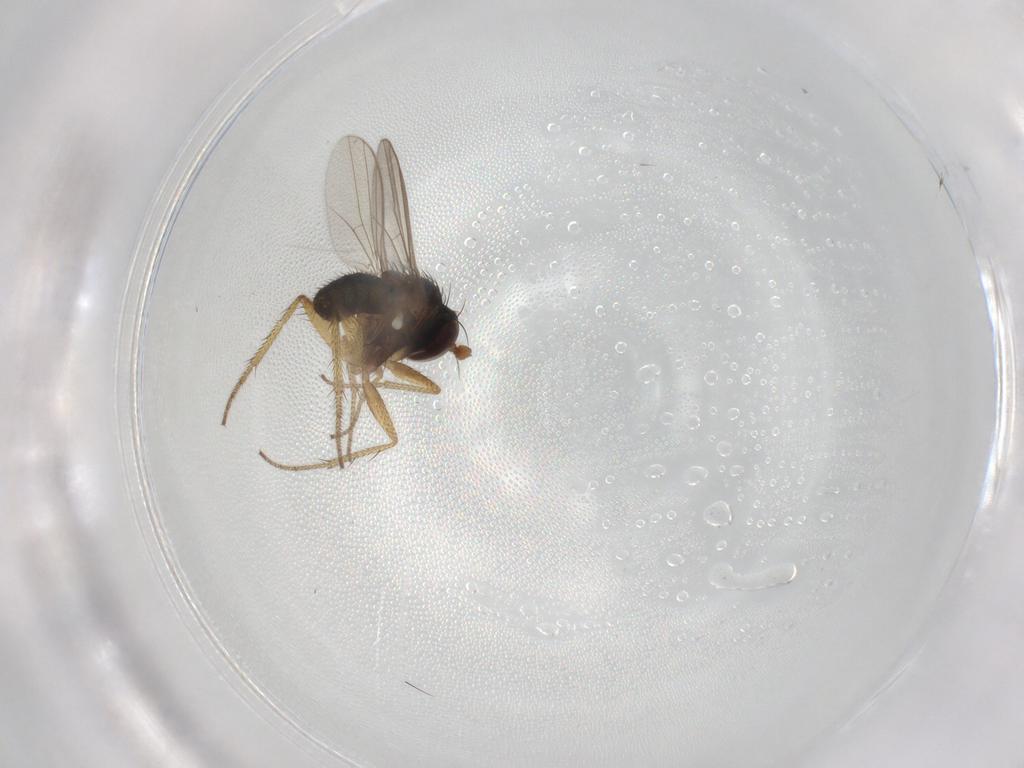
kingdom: Animalia
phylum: Arthropoda
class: Insecta
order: Diptera
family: Dolichopodidae
